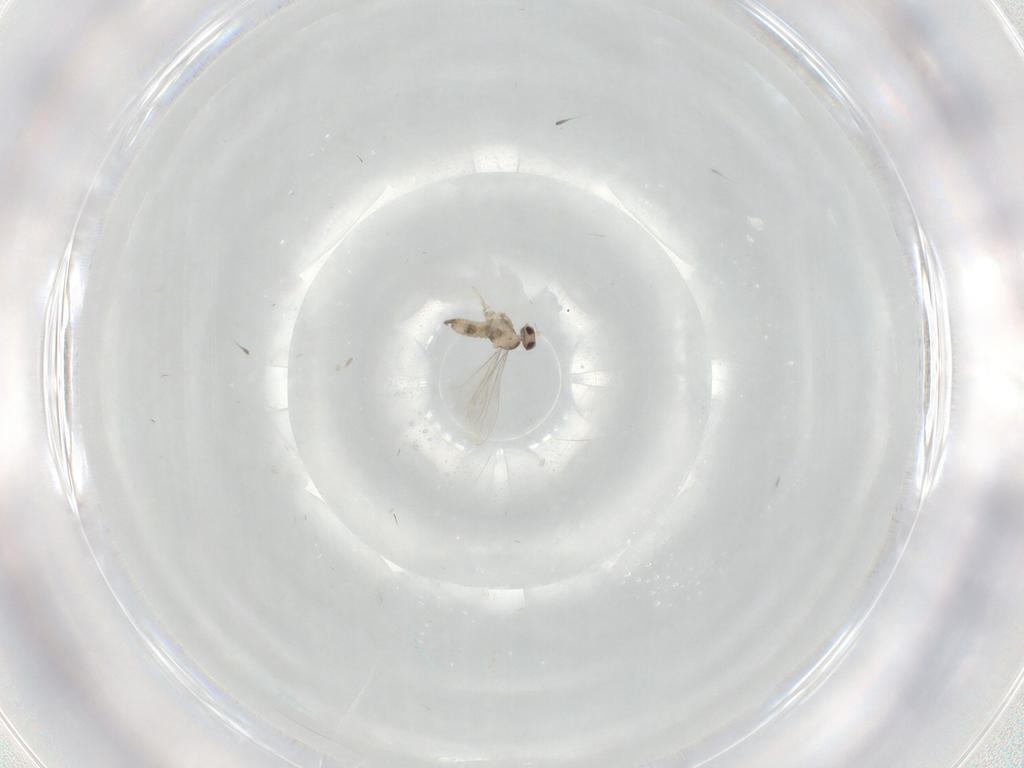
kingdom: Animalia
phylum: Arthropoda
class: Insecta
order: Diptera
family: Cecidomyiidae
